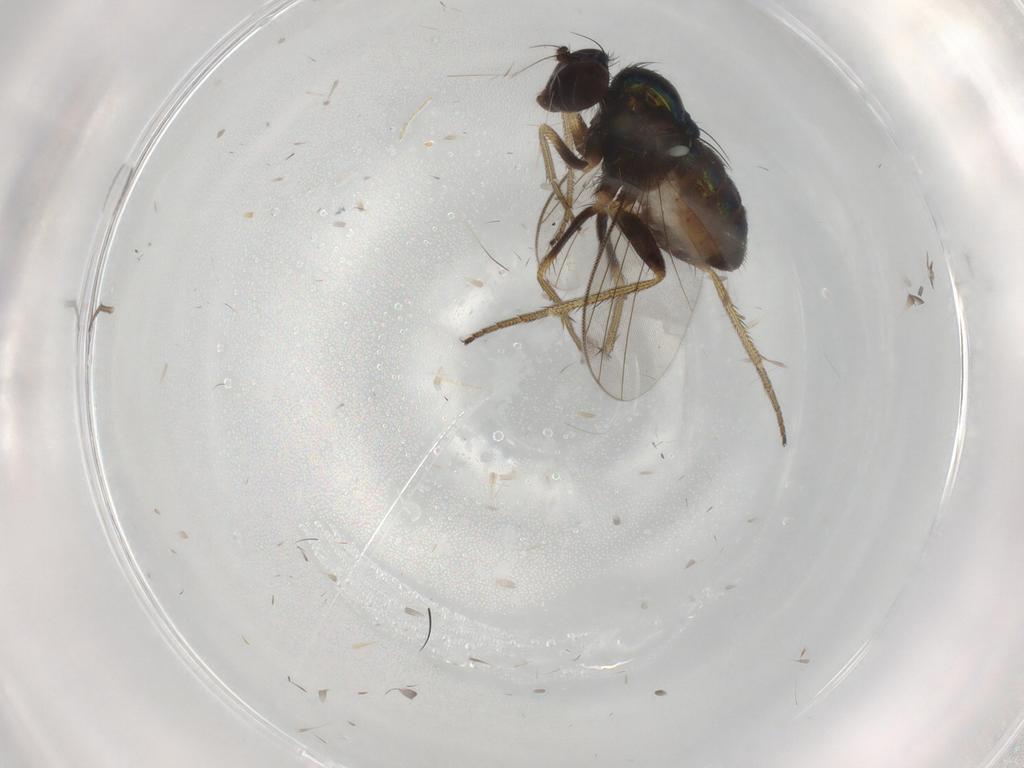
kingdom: Animalia
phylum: Arthropoda
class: Insecta
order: Diptera
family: Dolichopodidae
